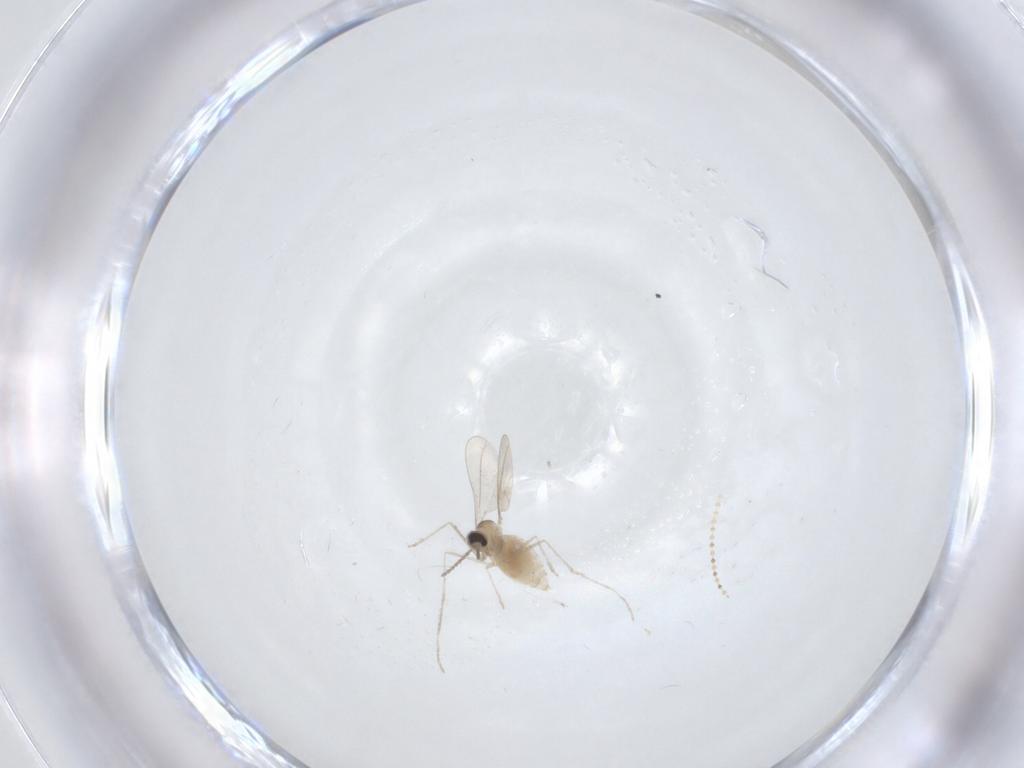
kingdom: Animalia
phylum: Arthropoda
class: Insecta
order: Diptera
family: Cecidomyiidae
